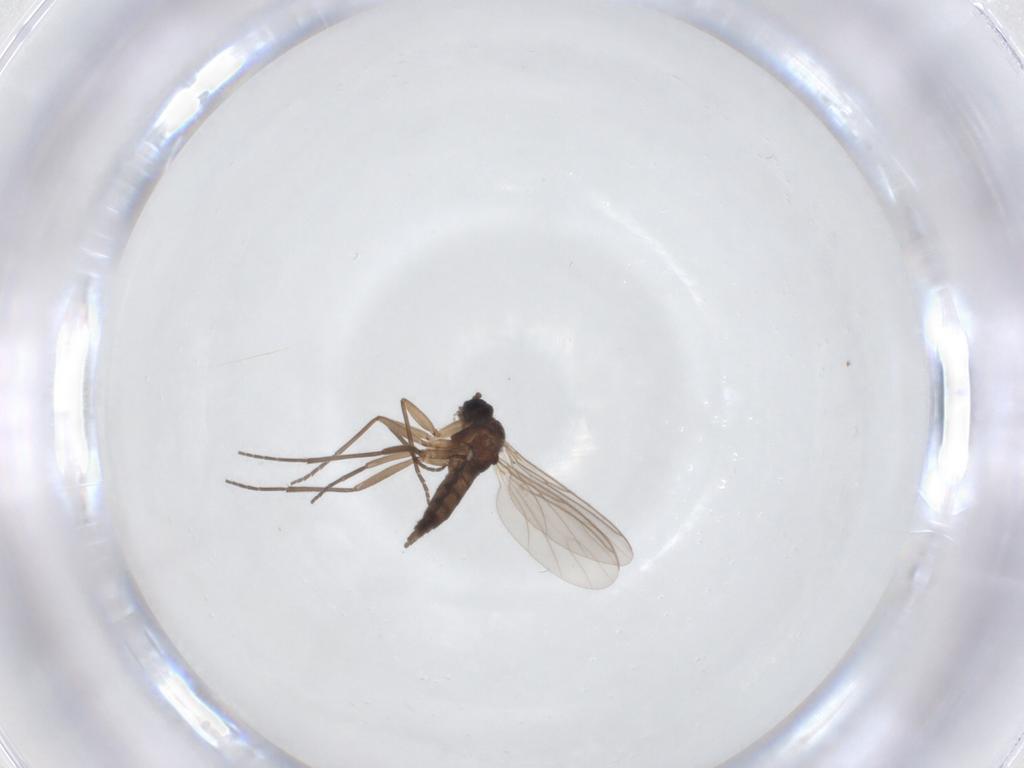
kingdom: Animalia
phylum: Arthropoda
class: Insecta
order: Diptera
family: Sciaridae
